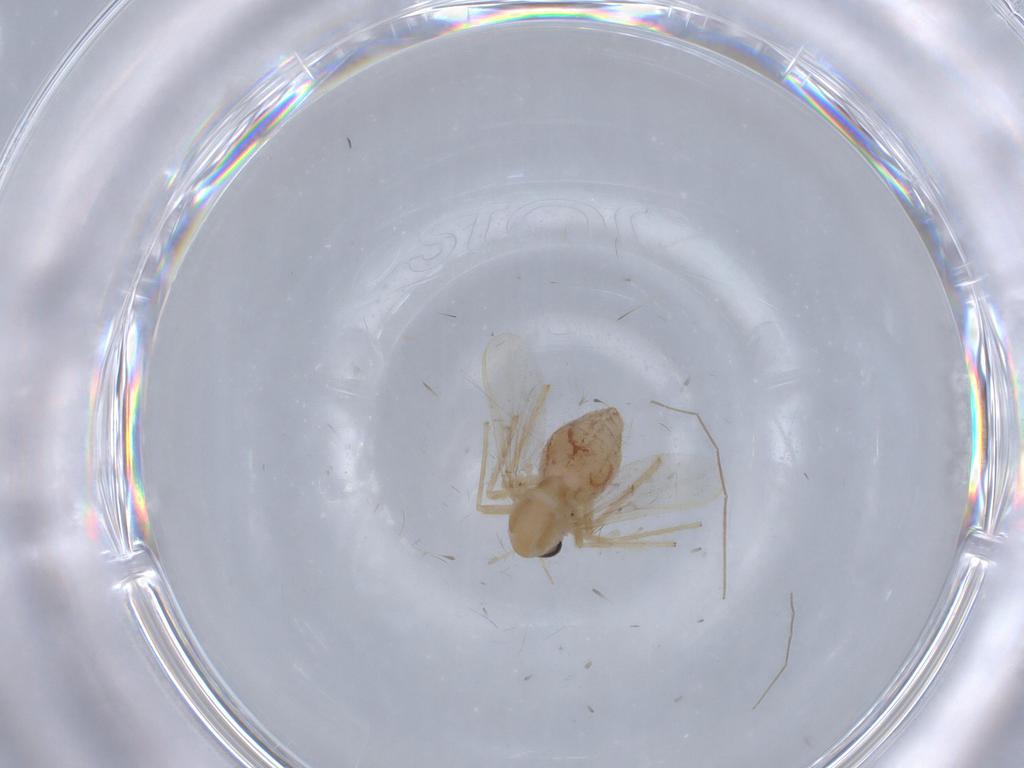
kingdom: Animalia
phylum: Arthropoda
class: Insecta
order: Diptera
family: Chironomidae
